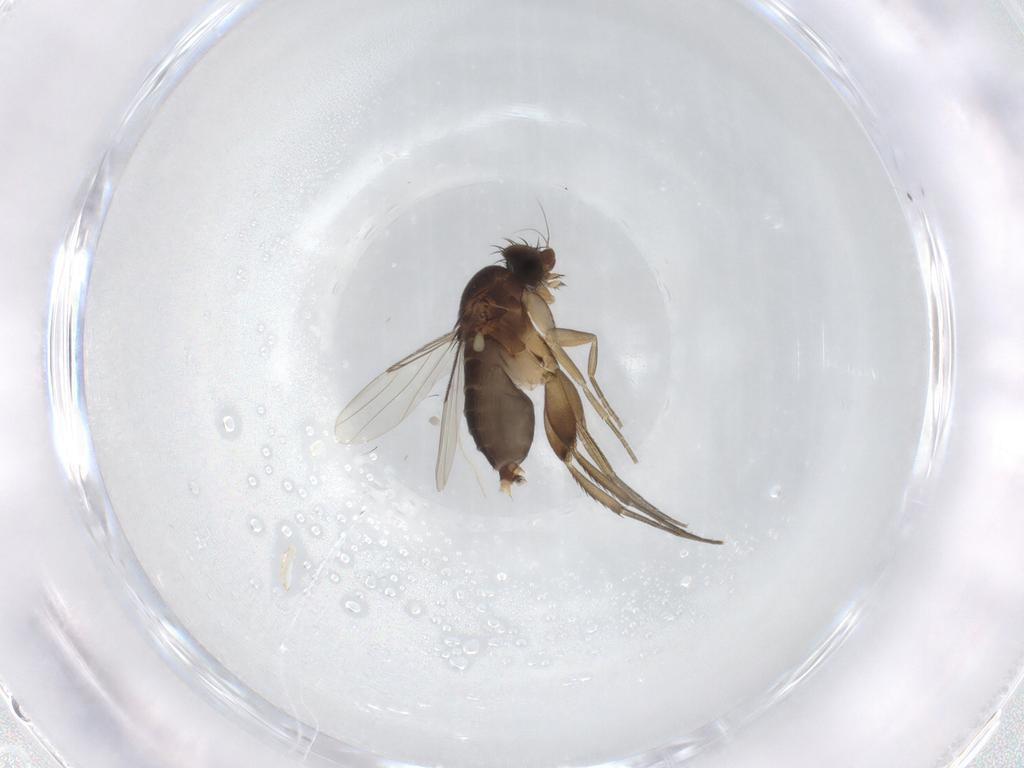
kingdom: Animalia
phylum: Arthropoda
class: Insecta
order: Diptera
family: Phoridae
